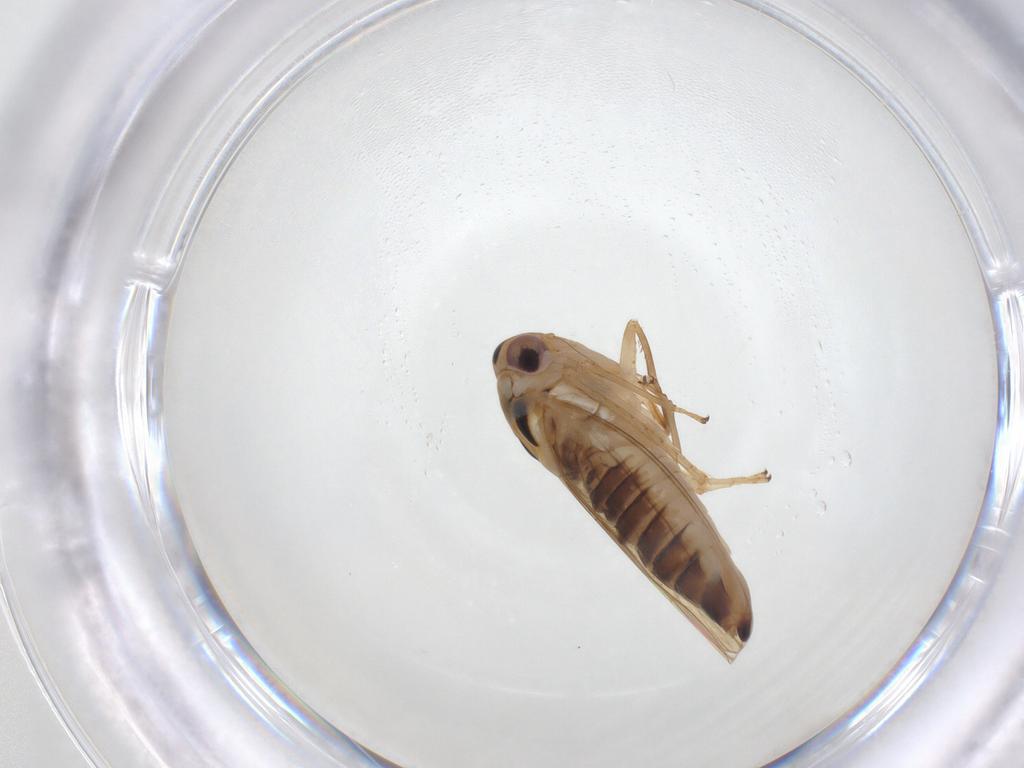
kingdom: Animalia
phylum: Arthropoda
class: Insecta
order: Hemiptera
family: Cicadellidae
